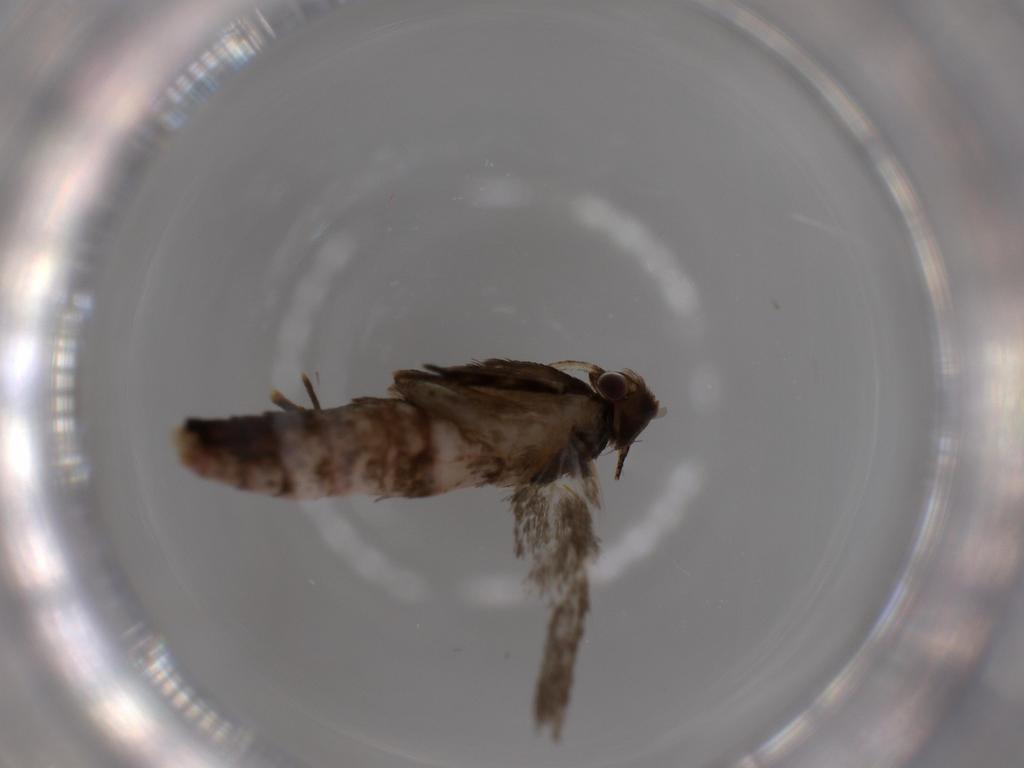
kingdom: Animalia
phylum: Arthropoda
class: Insecta
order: Lepidoptera
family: Gelechiidae
